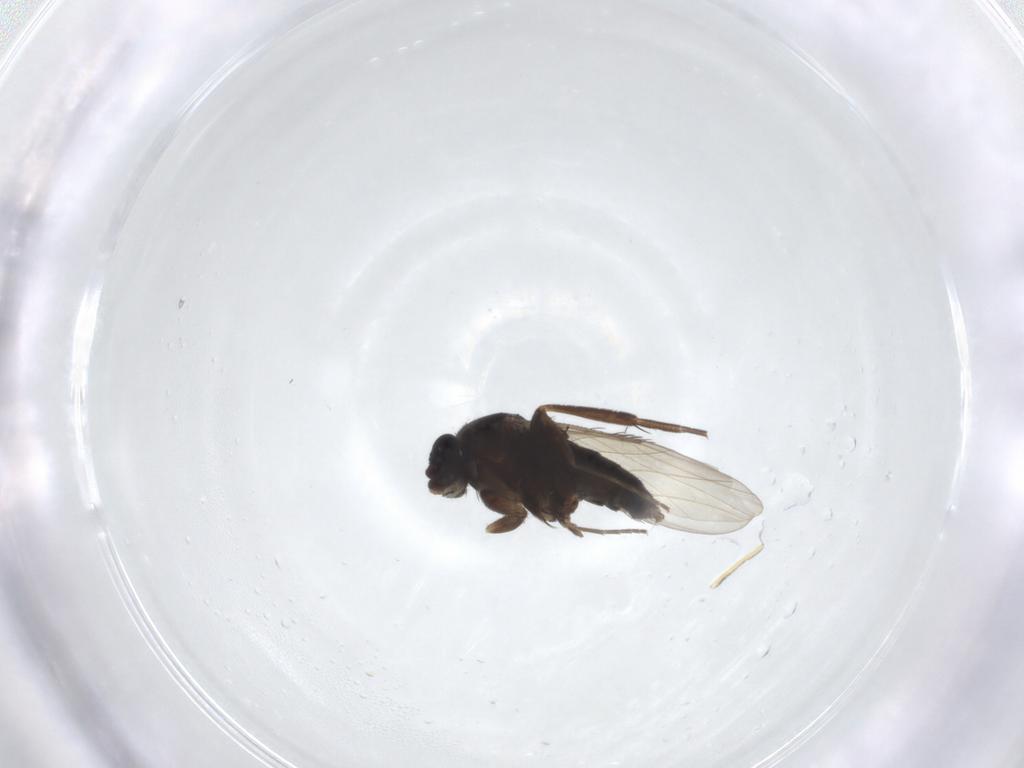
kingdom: Animalia
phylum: Arthropoda
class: Insecta
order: Diptera
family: Phoridae
